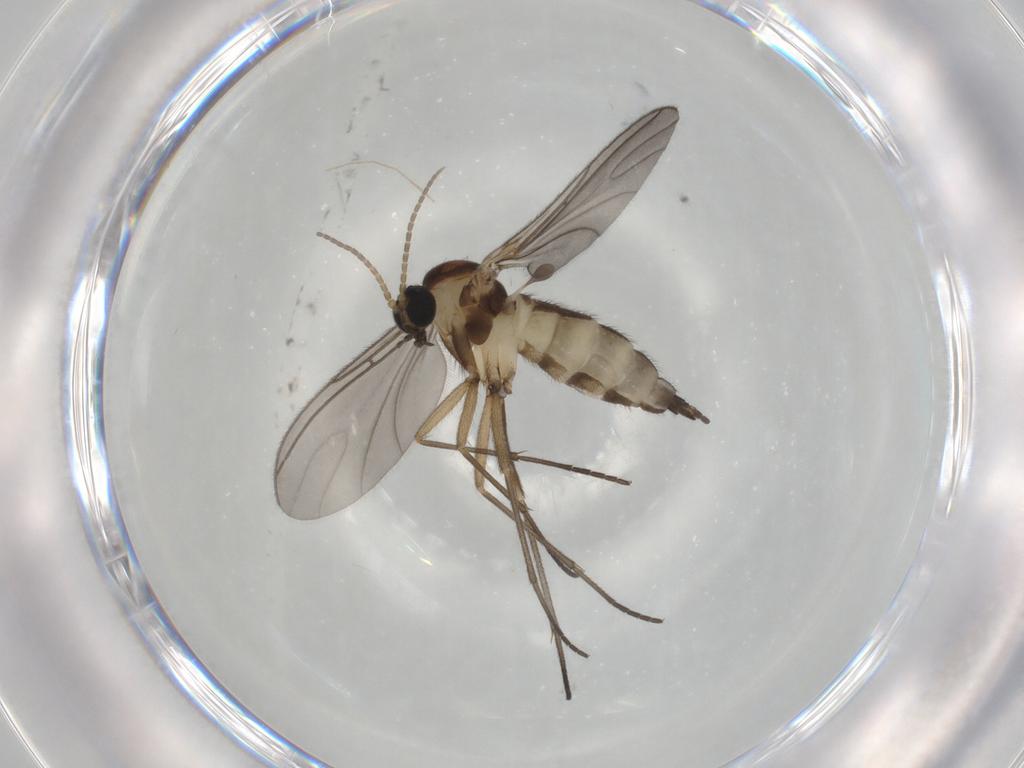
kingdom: Animalia
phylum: Arthropoda
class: Insecta
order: Diptera
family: Sciaridae
